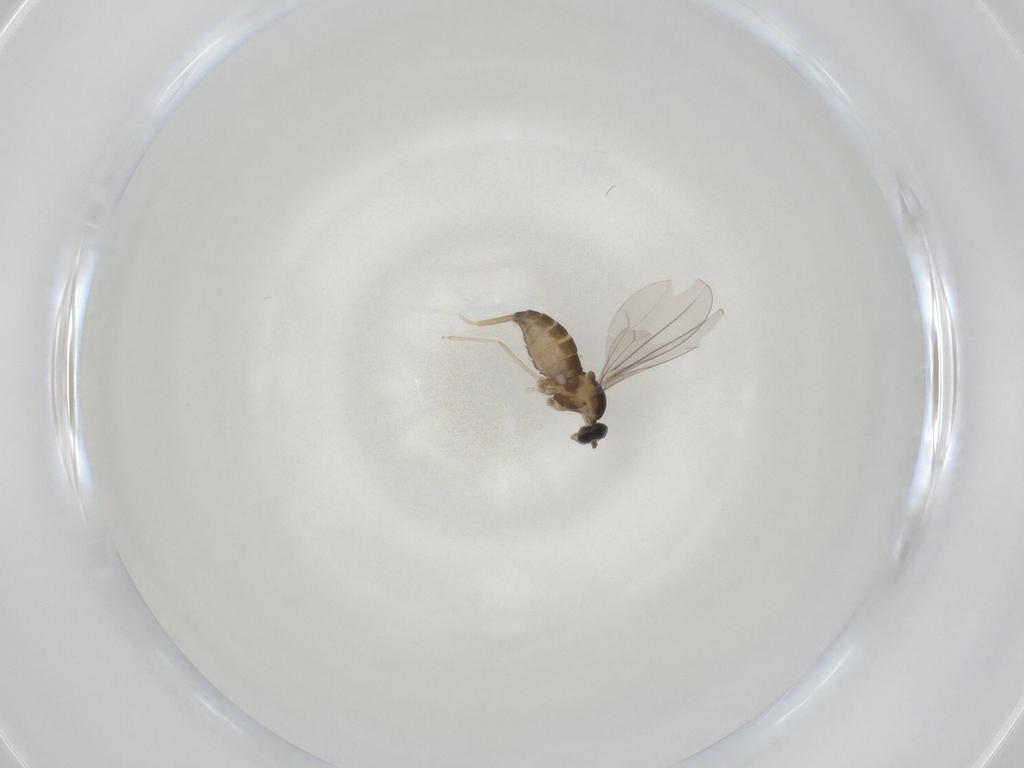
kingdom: Animalia
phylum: Arthropoda
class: Insecta
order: Diptera
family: Cecidomyiidae
